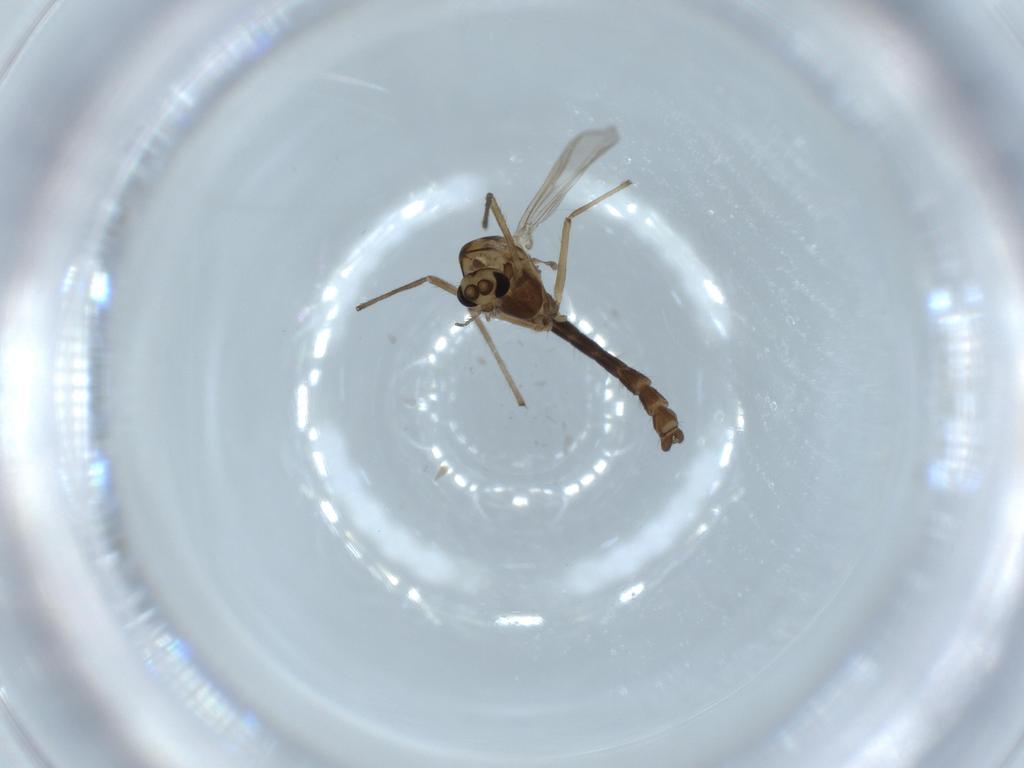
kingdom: Animalia
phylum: Arthropoda
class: Insecta
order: Diptera
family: Chironomidae
